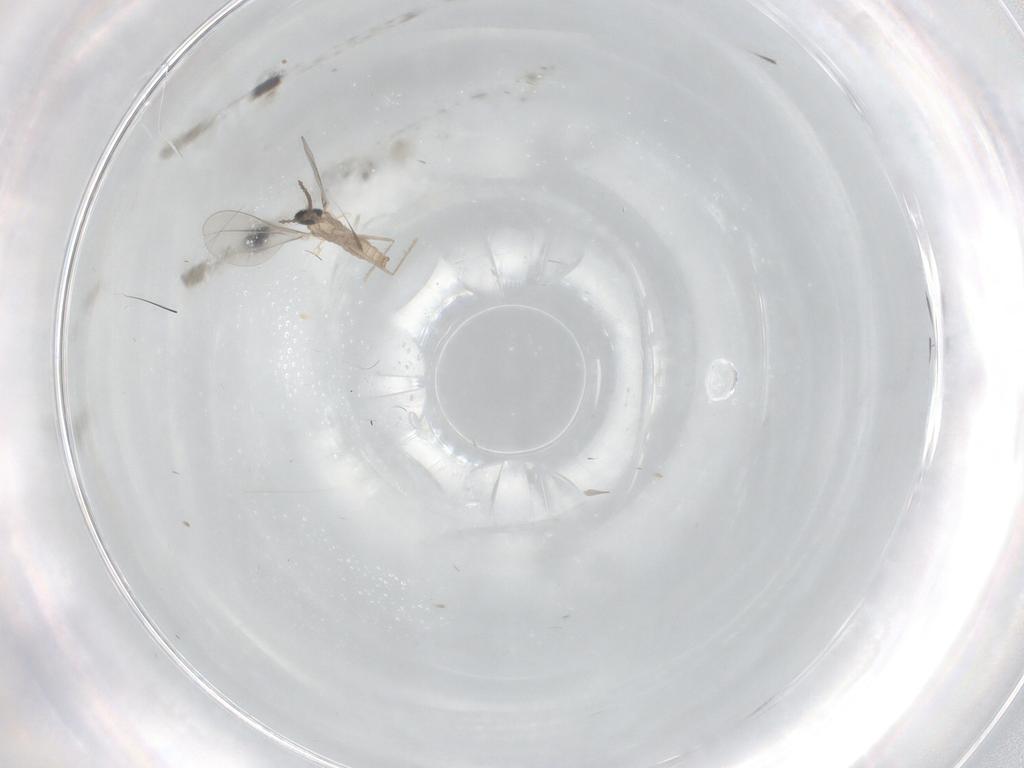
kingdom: Animalia
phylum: Arthropoda
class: Insecta
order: Diptera
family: Cecidomyiidae
